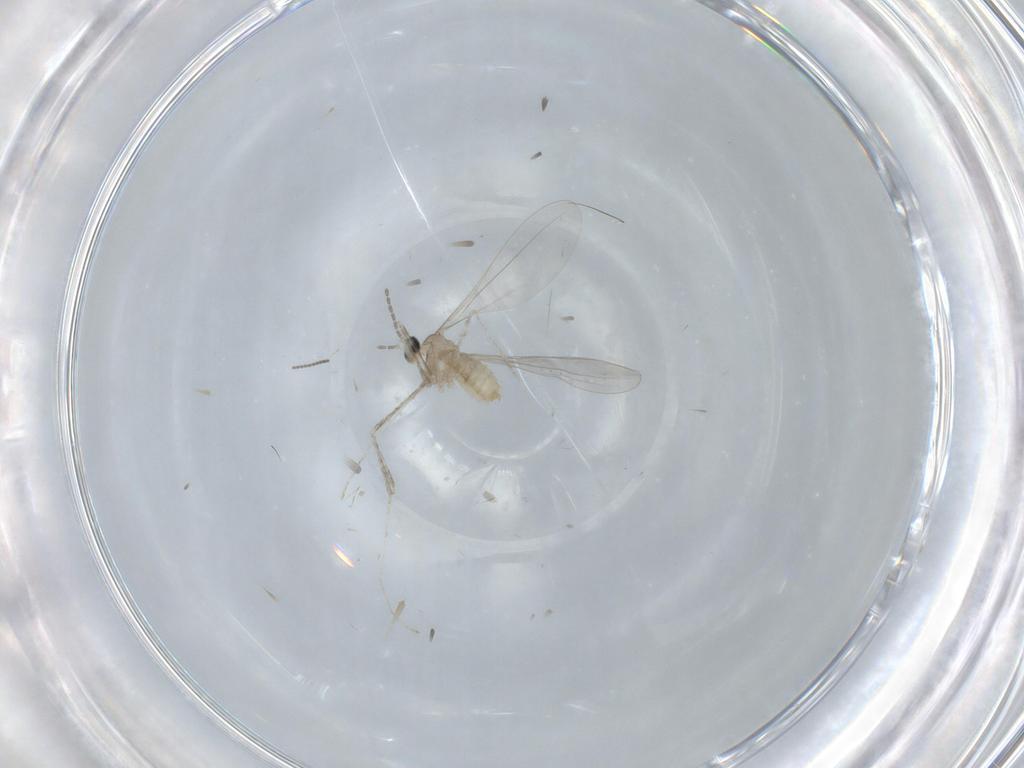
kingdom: Animalia
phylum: Arthropoda
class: Insecta
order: Diptera
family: Cecidomyiidae
